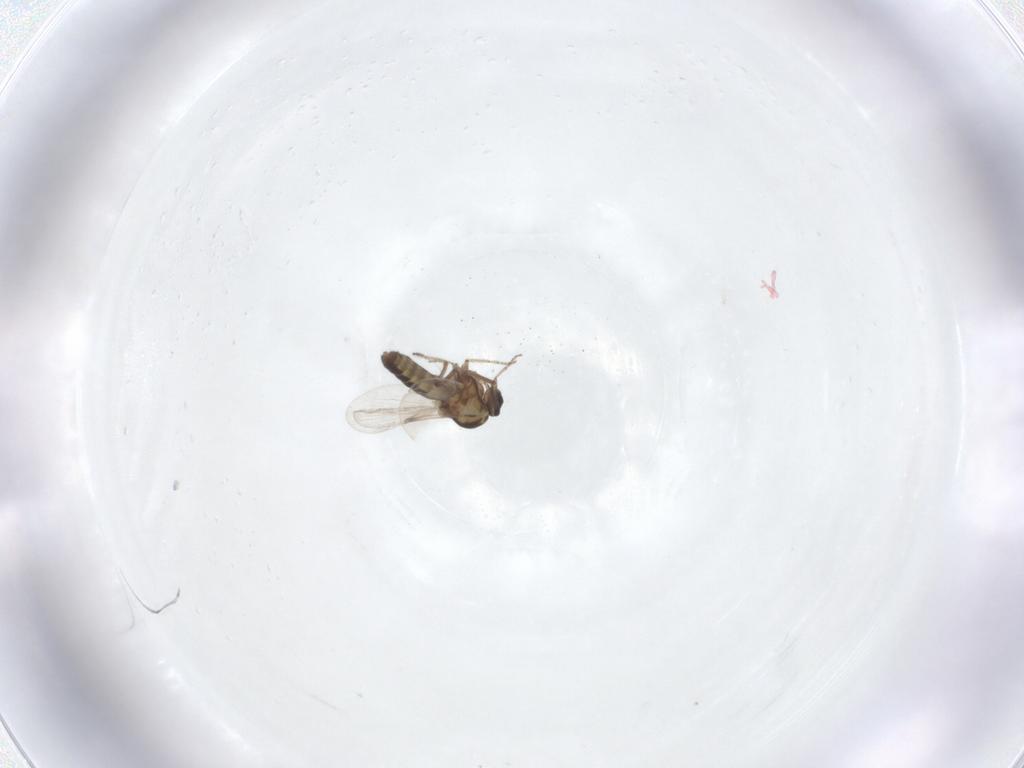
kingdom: Animalia
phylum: Arthropoda
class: Insecta
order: Diptera
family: Ceratopogonidae
